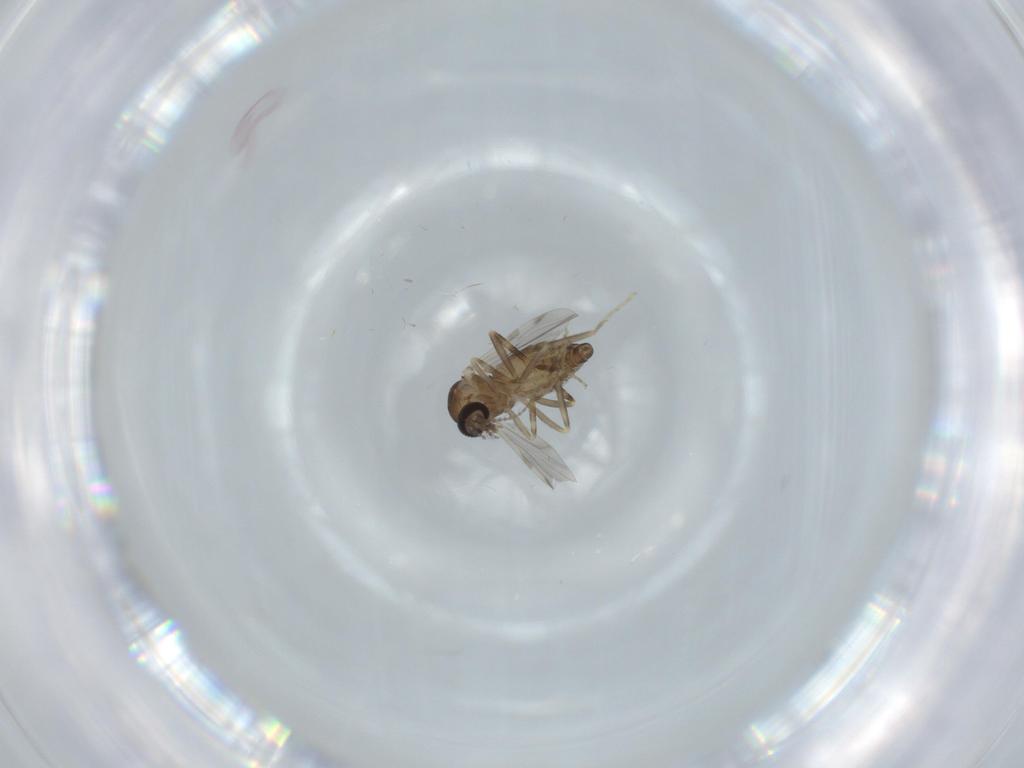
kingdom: Animalia
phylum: Arthropoda
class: Insecta
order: Diptera
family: Ceratopogonidae
